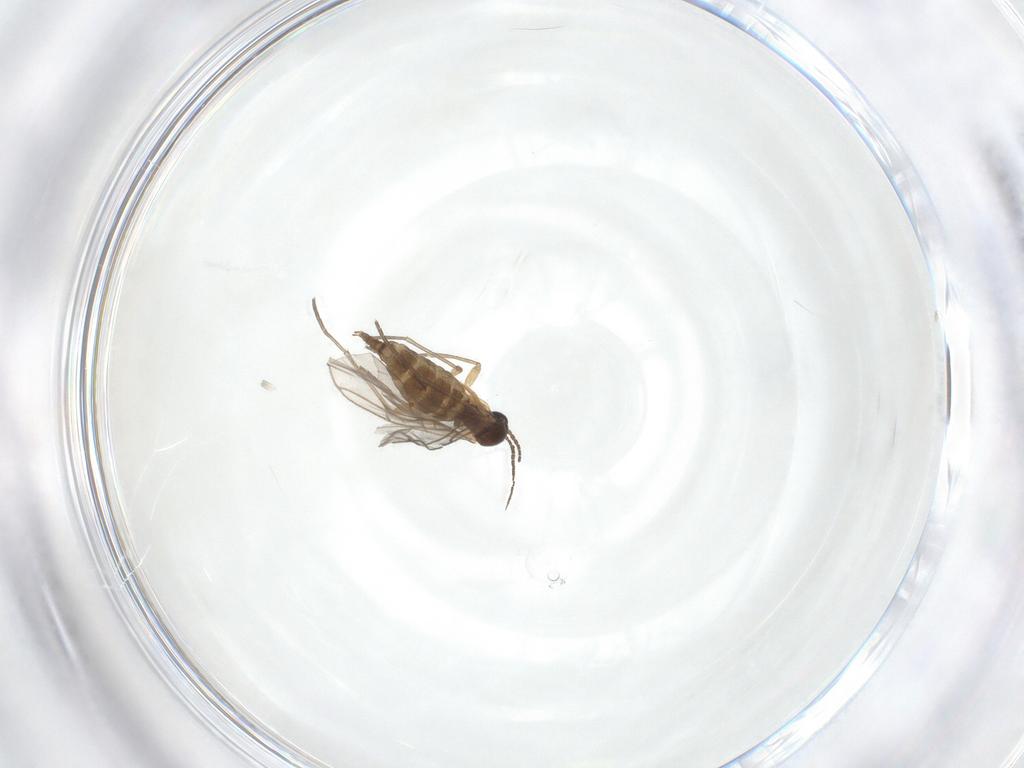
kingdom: Animalia
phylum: Arthropoda
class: Insecta
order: Diptera
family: Sciaridae
